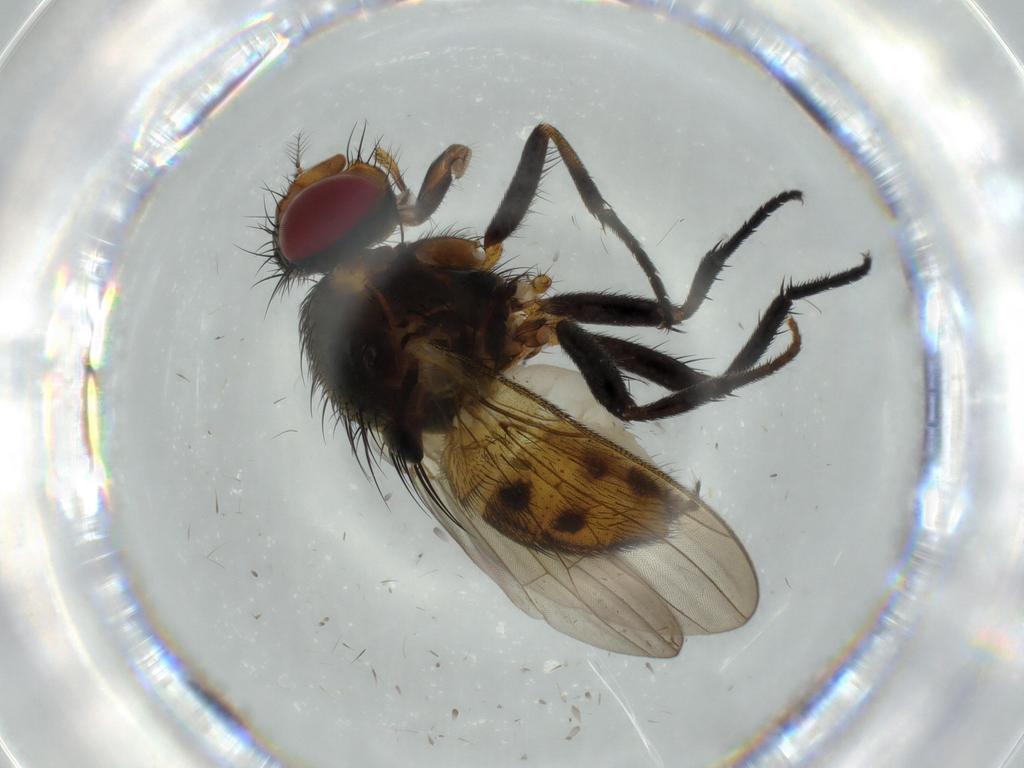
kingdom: Animalia
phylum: Arthropoda
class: Insecta
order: Diptera
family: Anthomyiidae
